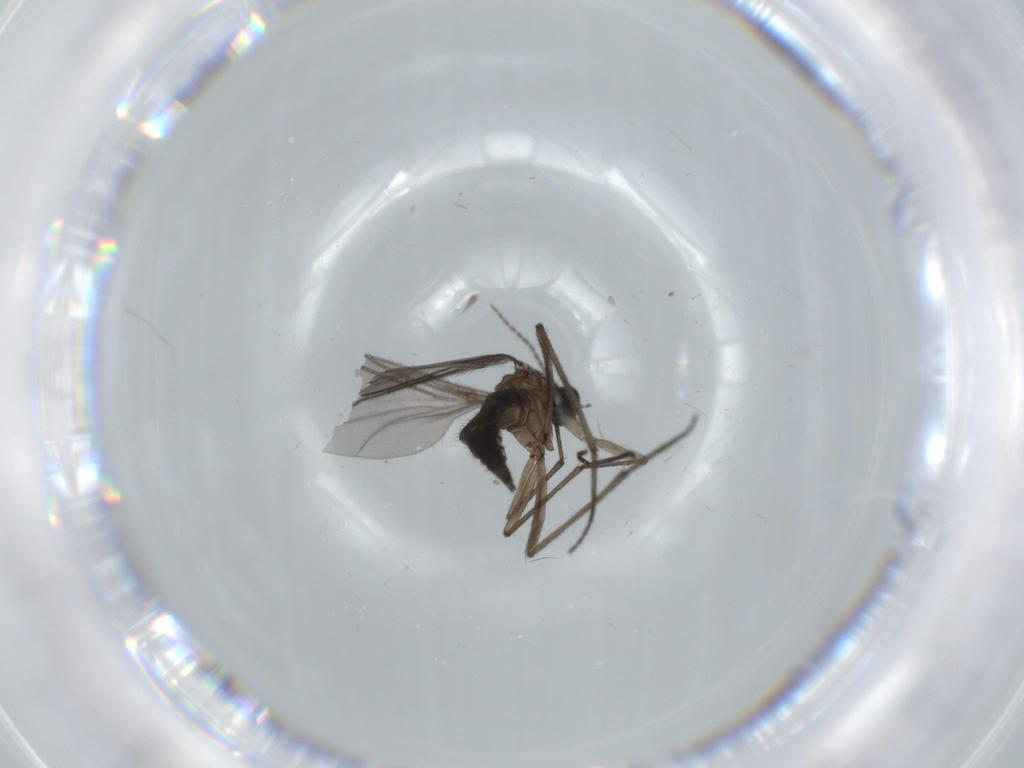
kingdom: Animalia
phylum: Arthropoda
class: Insecta
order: Diptera
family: Sciaridae
